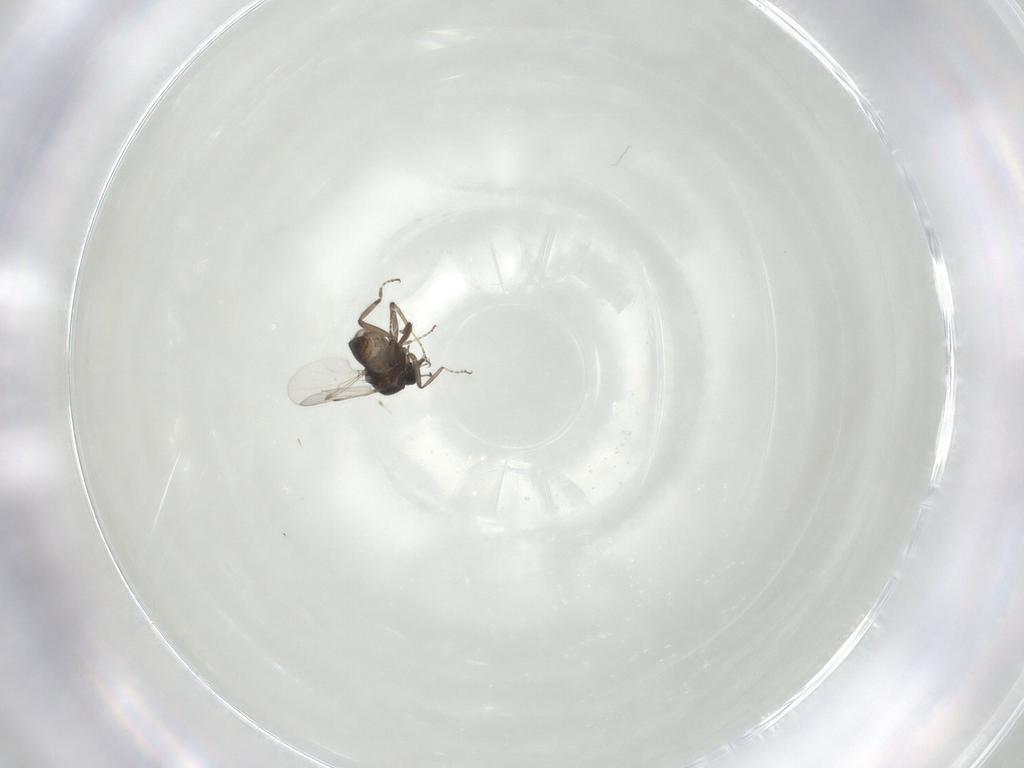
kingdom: Animalia
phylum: Arthropoda
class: Insecta
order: Diptera
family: Ceratopogonidae
